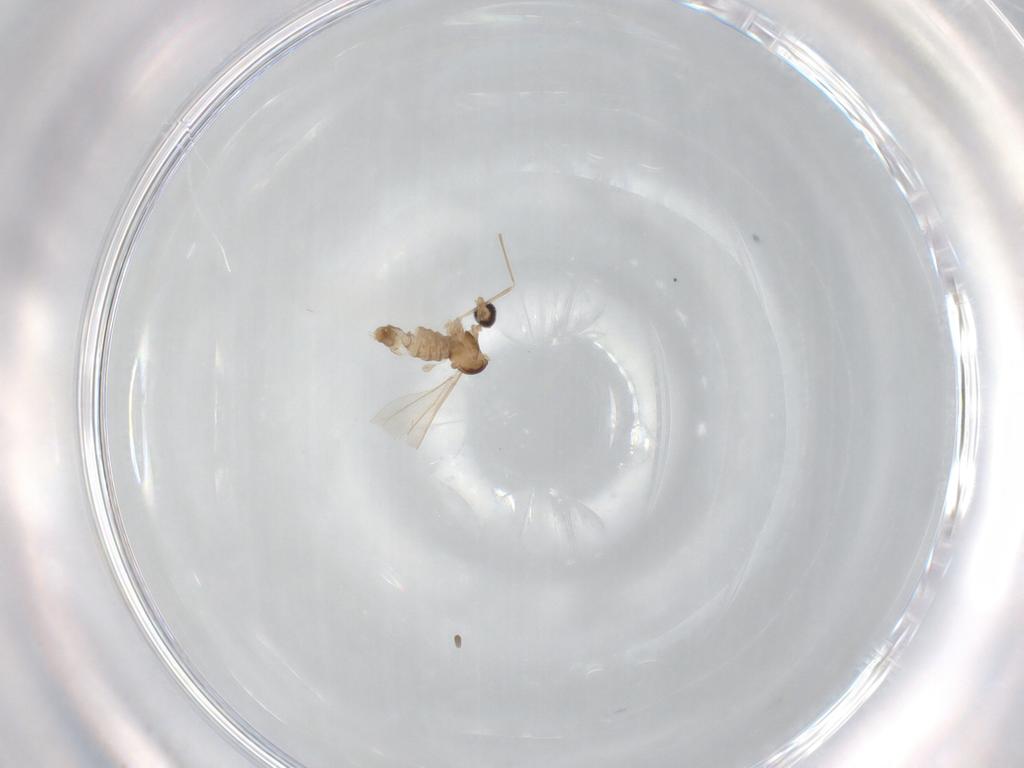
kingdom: Animalia
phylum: Arthropoda
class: Insecta
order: Diptera
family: Cecidomyiidae
